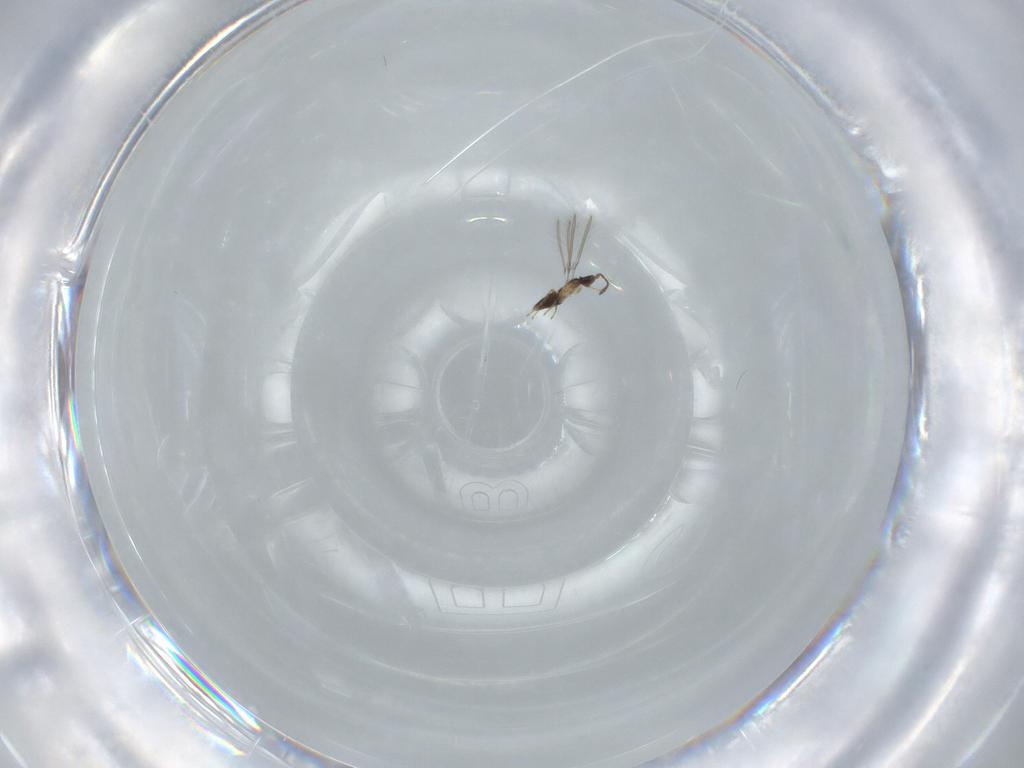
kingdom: Animalia
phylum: Arthropoda
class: Insecta
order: Hymenoptera
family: Mymaridae
